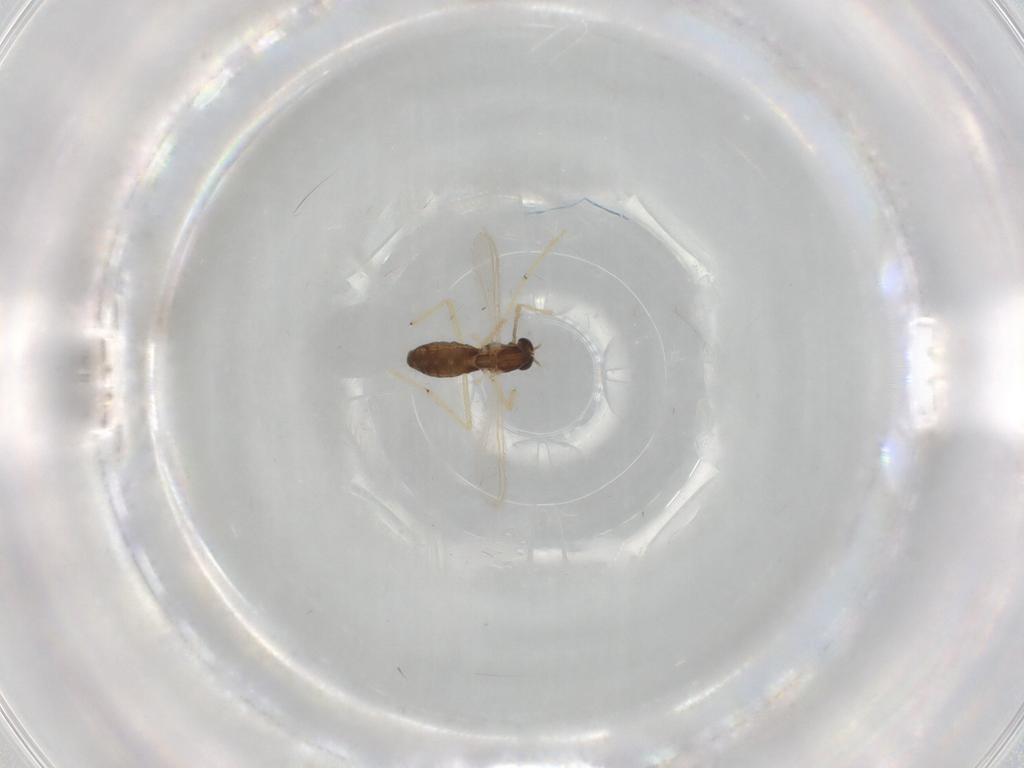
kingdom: Animalia
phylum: Arthropoda
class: Insecta
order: Diptera
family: Chironomidae
